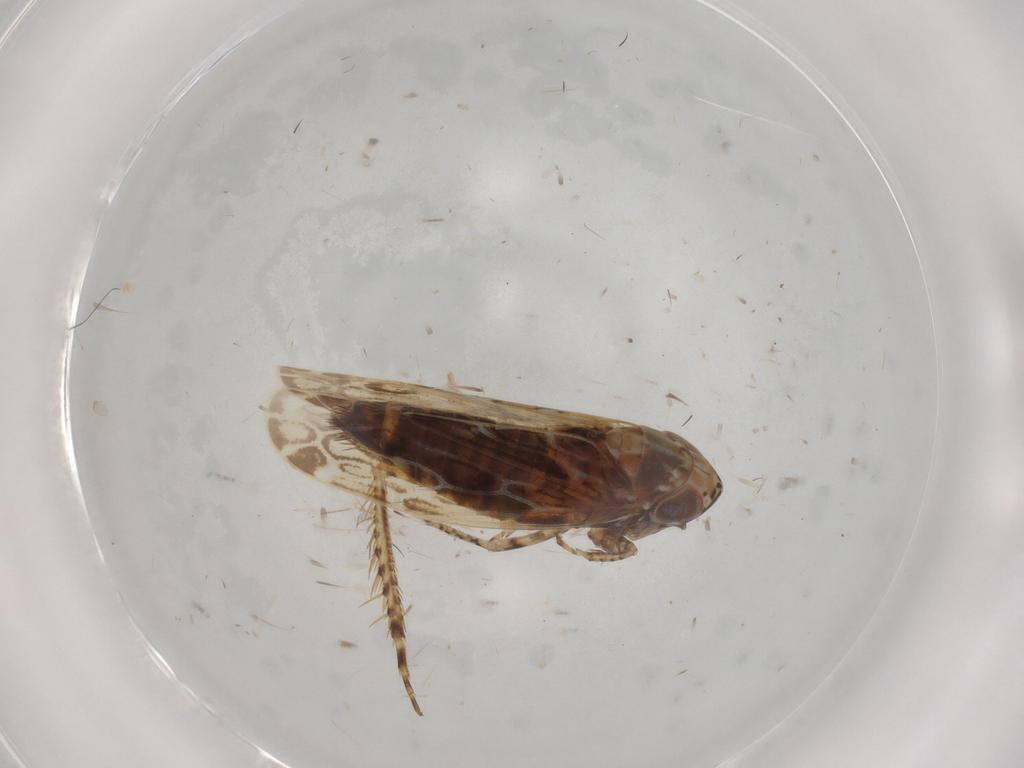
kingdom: Animalia
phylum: Arthropoda
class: Insecta
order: Hemiptera
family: Cicadellidae
